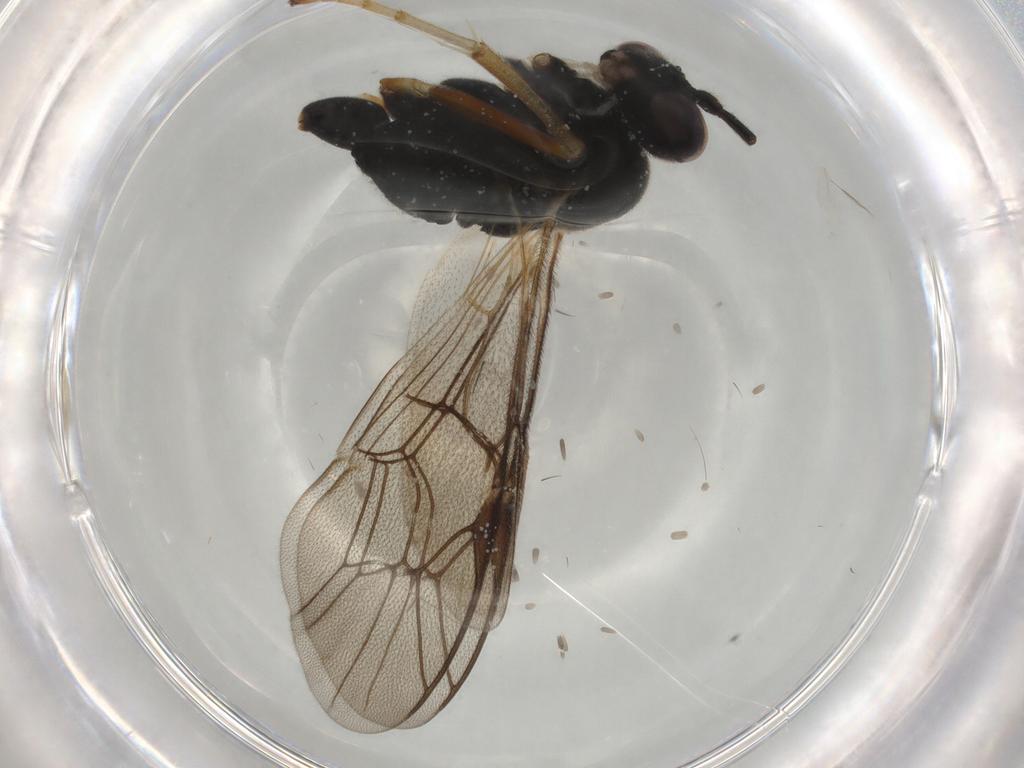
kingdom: Animalia
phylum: Arthropoda
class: Insecta
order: Hymenoptera
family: Ichneumonidae
